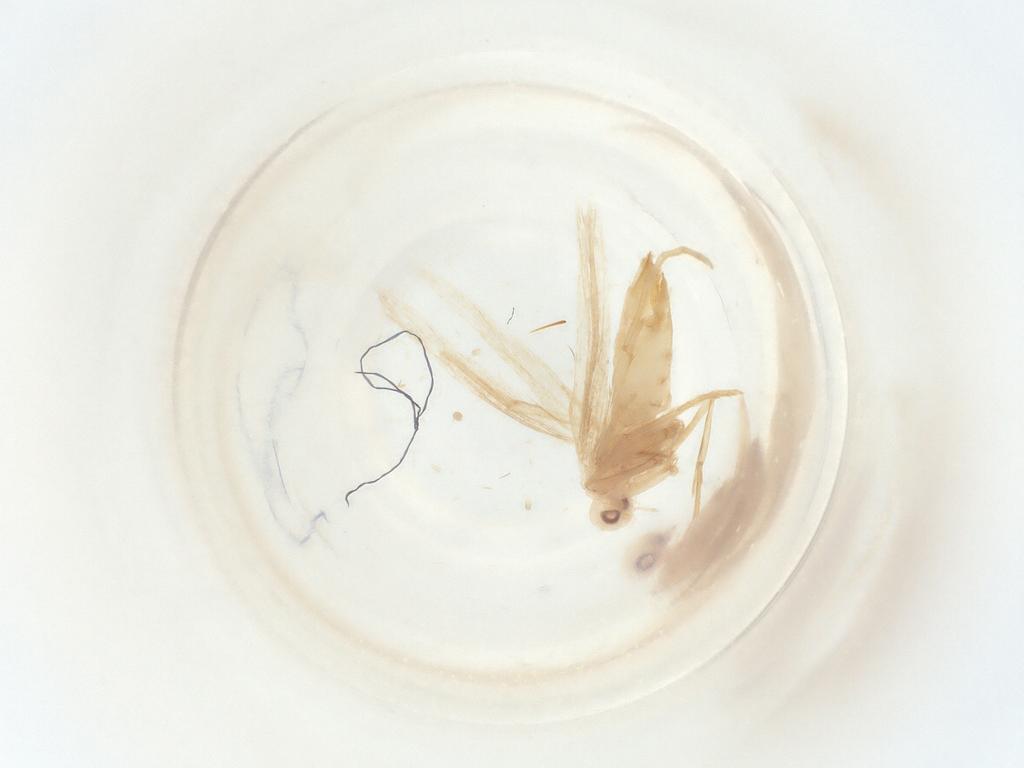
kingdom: Animalia
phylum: Arthropoda
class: Insecta
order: Lepidoptera
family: Gracillariidae
